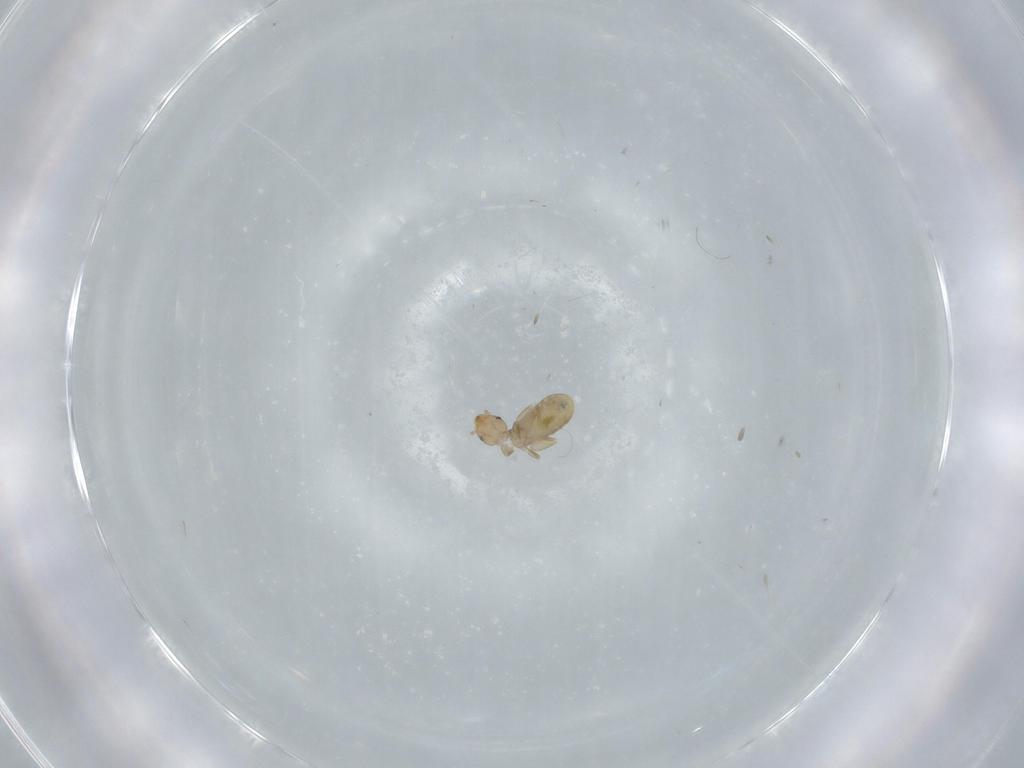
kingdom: Animalia
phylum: Arthropoda
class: Insecta
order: Psocodea
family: Liposcelididae
